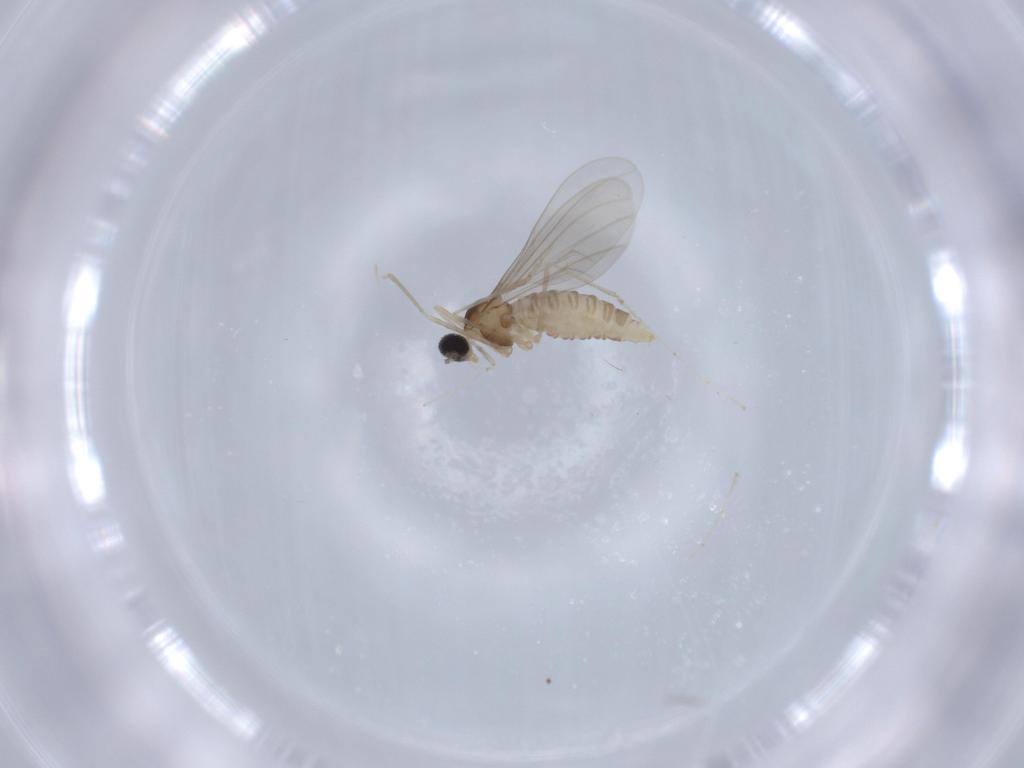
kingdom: Animalia
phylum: Arthropoda
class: Insecta
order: Diptera
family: Cecidomyiidae
